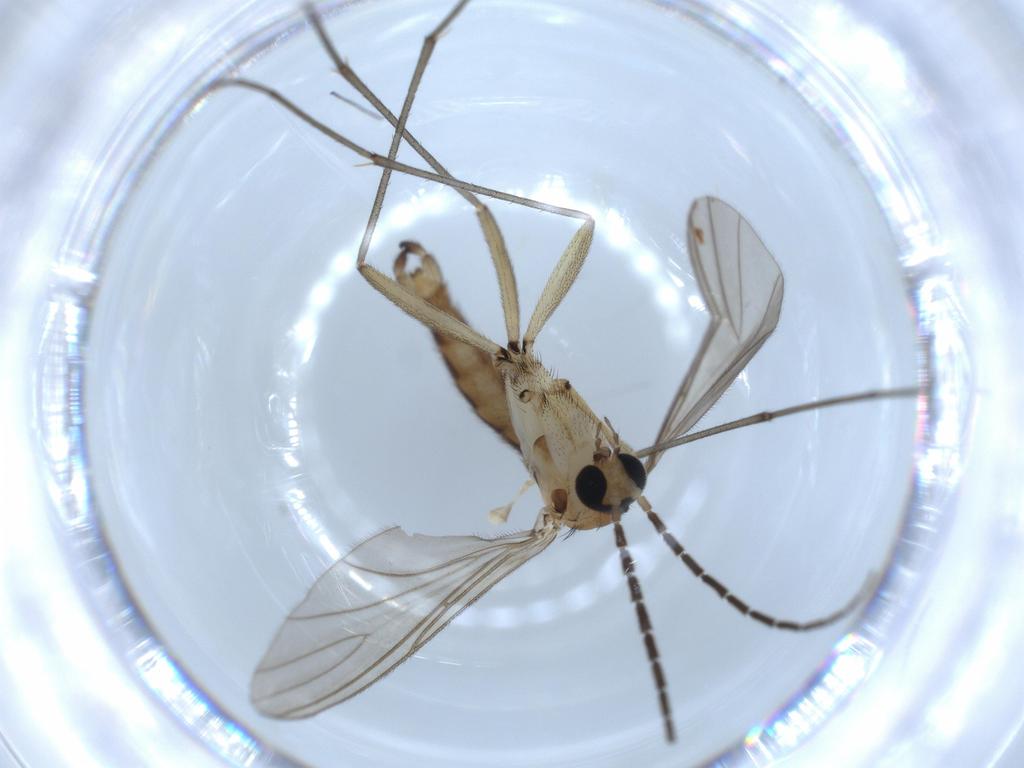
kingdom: Animalia
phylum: Arthropoda
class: Insecta
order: Diptera
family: Sciaridae
